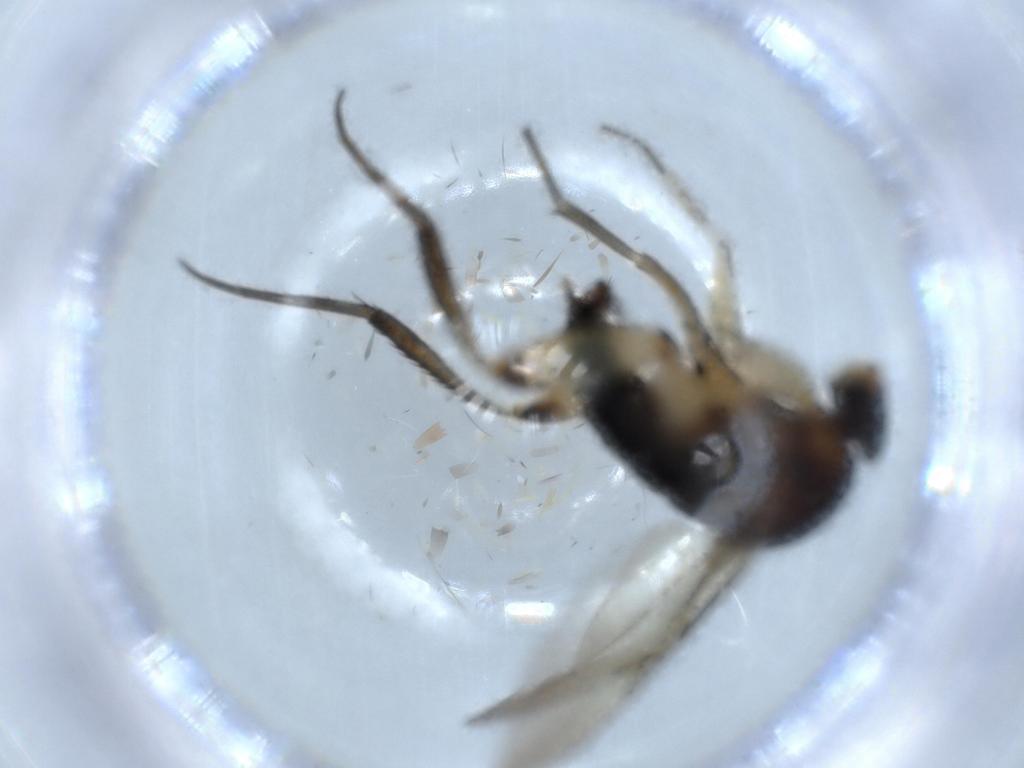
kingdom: Animalia
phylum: Arthropoda
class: Insecta
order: Diptera
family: Phoridae
